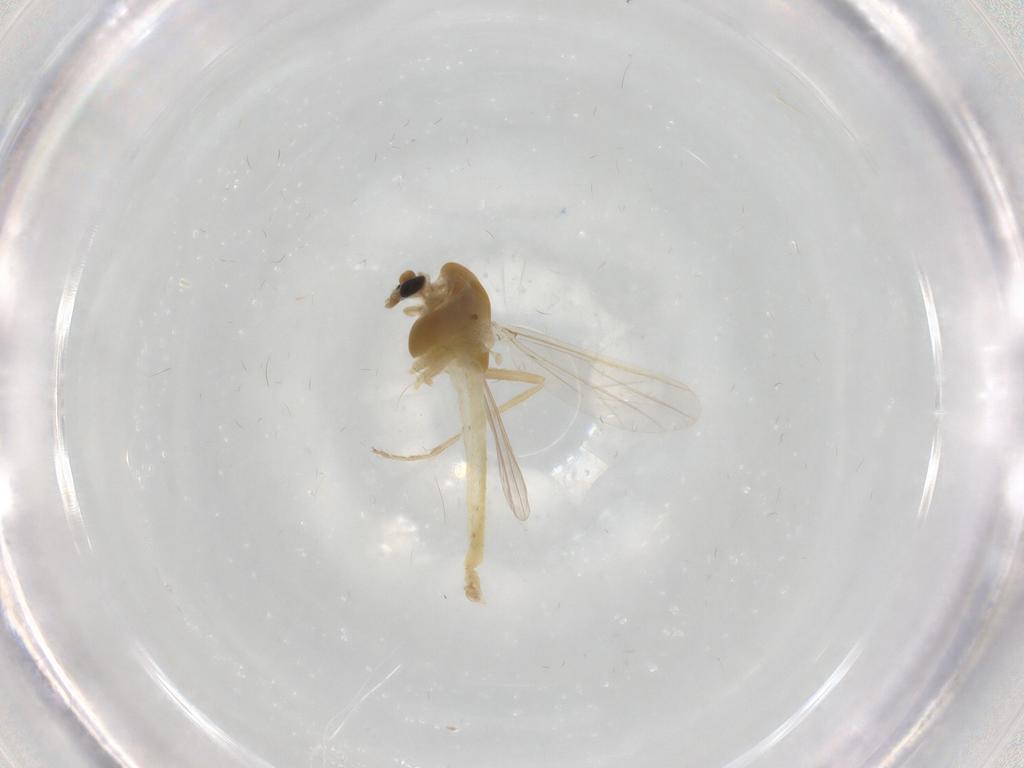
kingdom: Animalia
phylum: Arthropoda
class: Insecta
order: Diptera
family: Chironomidae
